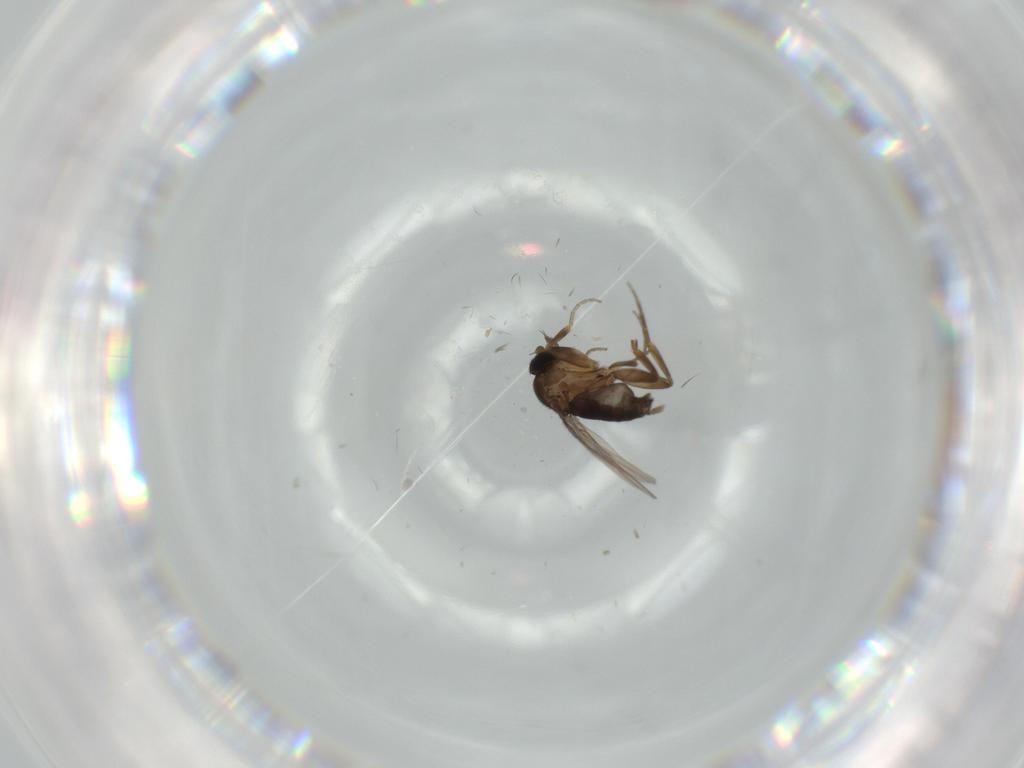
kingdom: Animalia
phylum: Arthropoda
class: Insecta
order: Diptera
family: Phoridae
